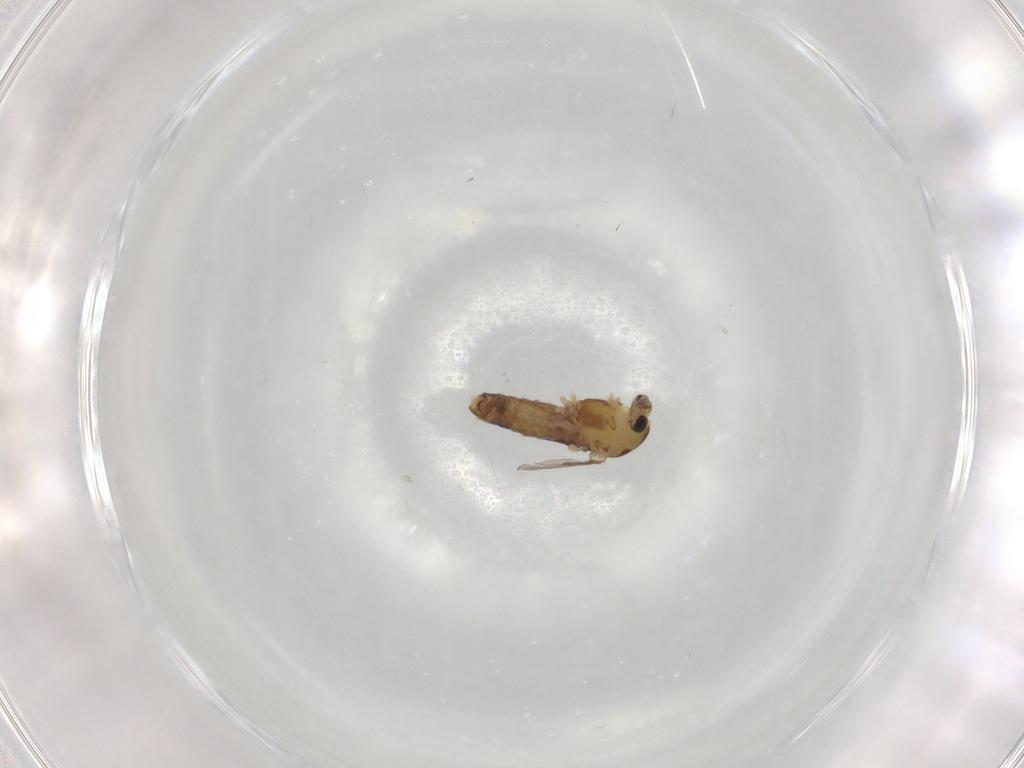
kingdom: Animalia
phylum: Arthropoda
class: Insecta
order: Diptera
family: Chironomidae
